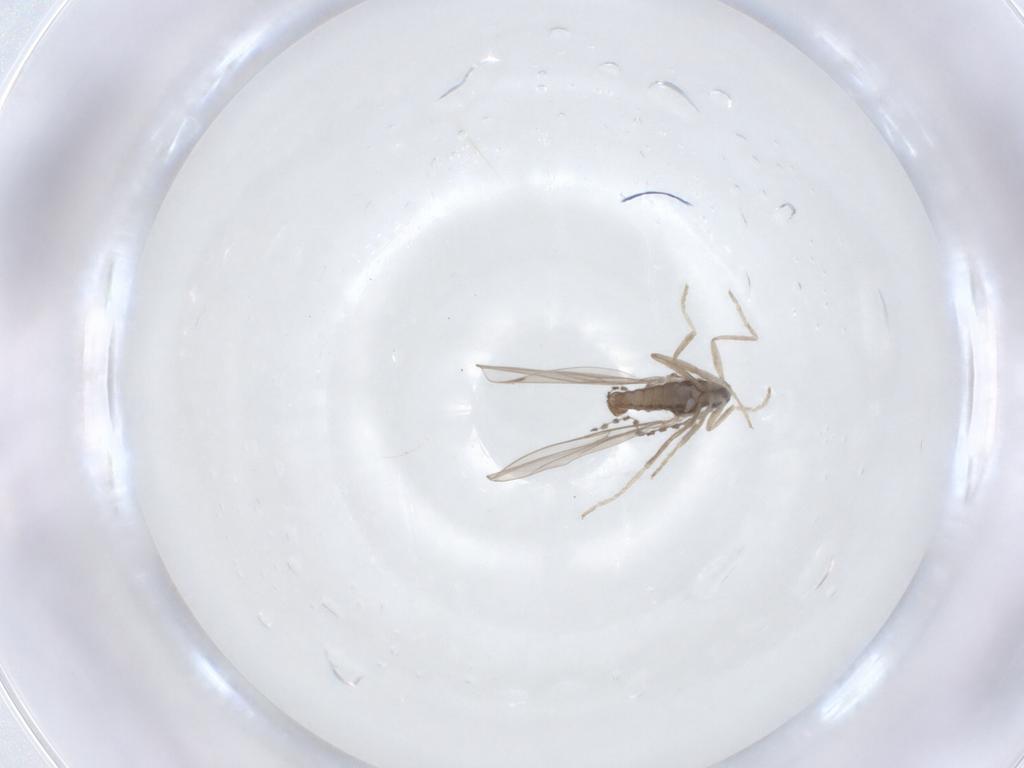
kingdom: Animalia
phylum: Arthropoda
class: Insecta
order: Diptera
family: Cecidomyiidae
